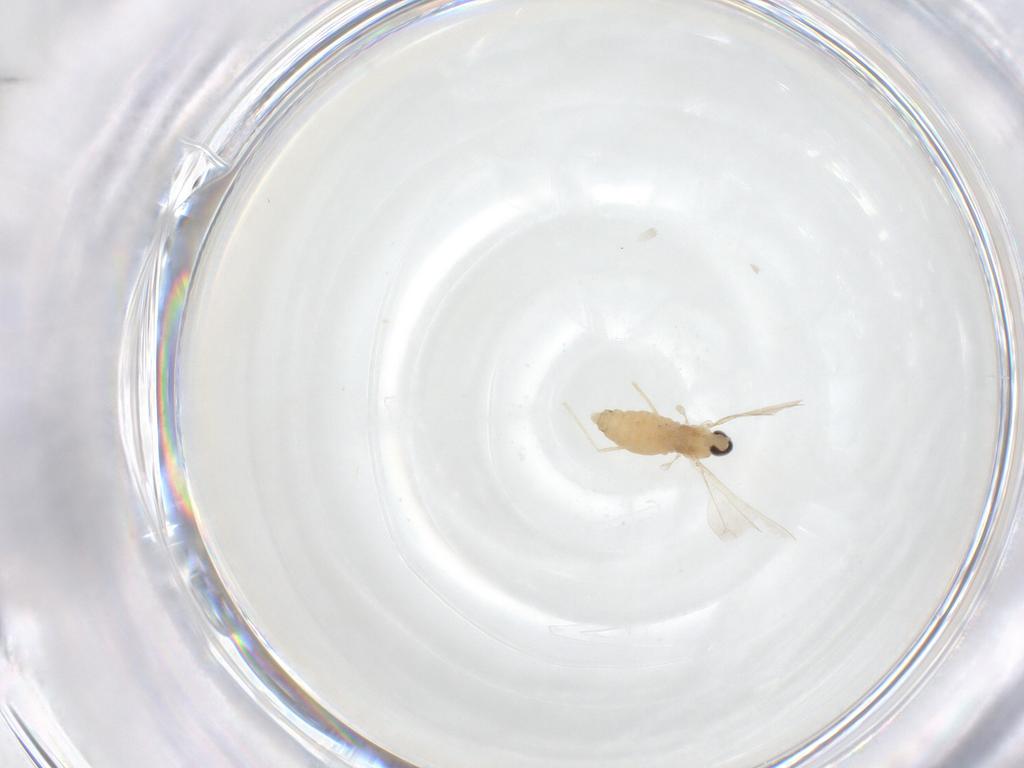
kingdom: Animalia
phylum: Arthropoda
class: Insecta
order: Diptera
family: Cecidomyiidae
